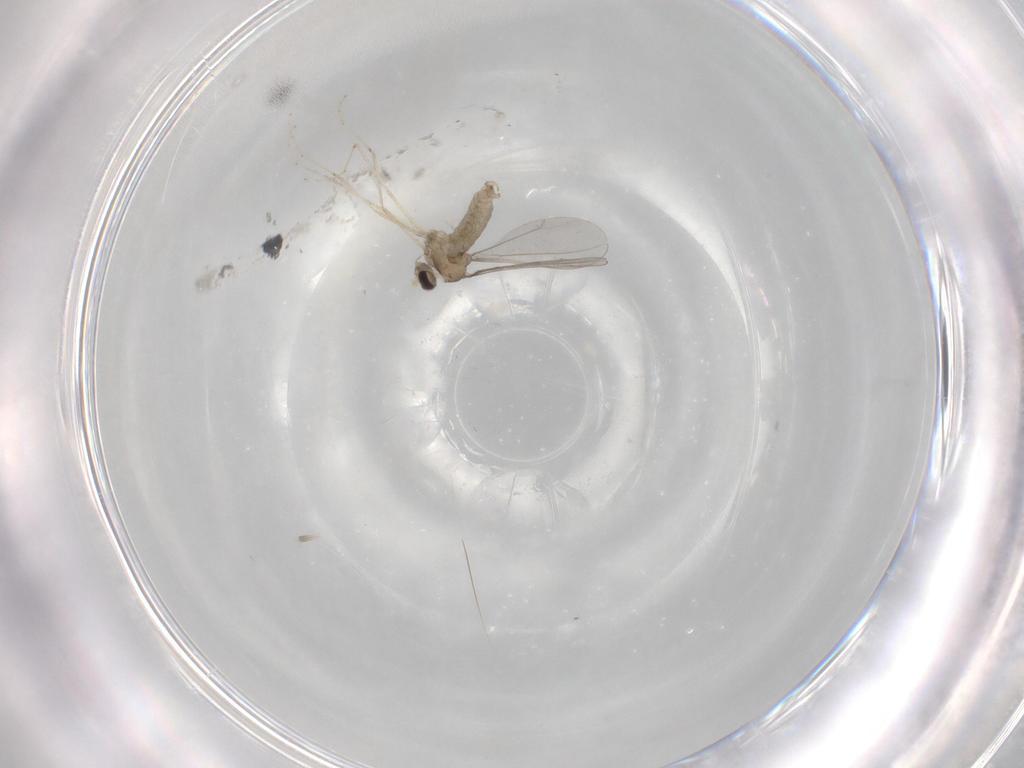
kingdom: Animalia
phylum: Arthropoda
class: Insecta
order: Diptera
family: Cecidomyiidae
